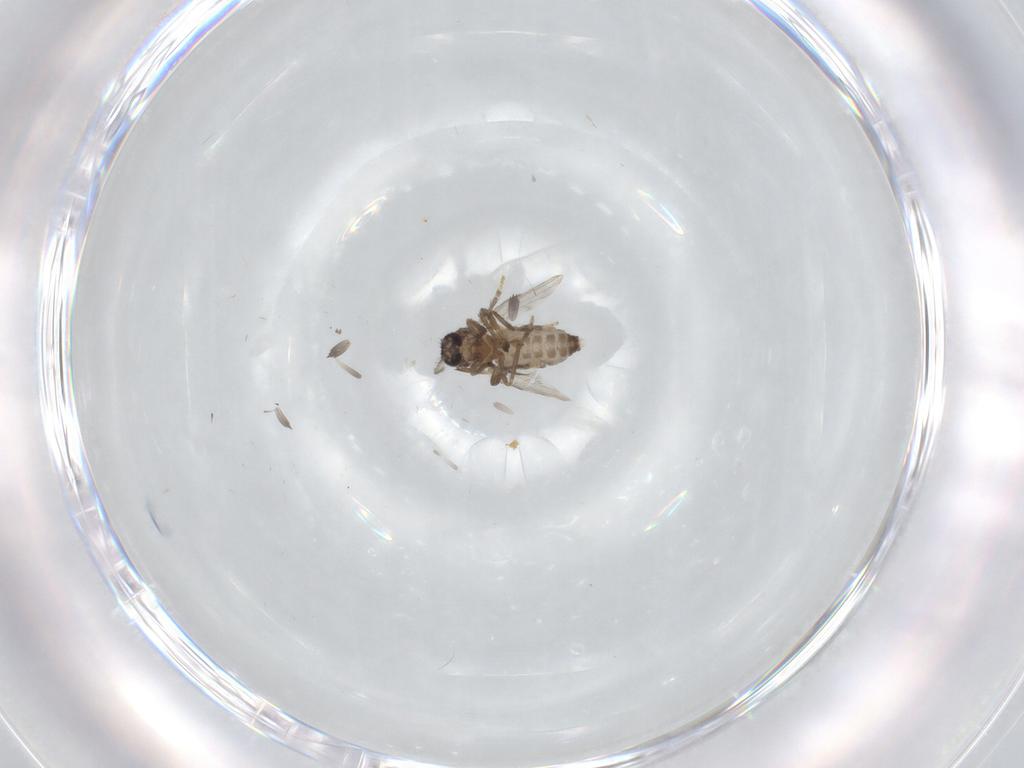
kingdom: Animalia
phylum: Arthropoda
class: Insecta
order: Diptera
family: Ceratopogonidae
